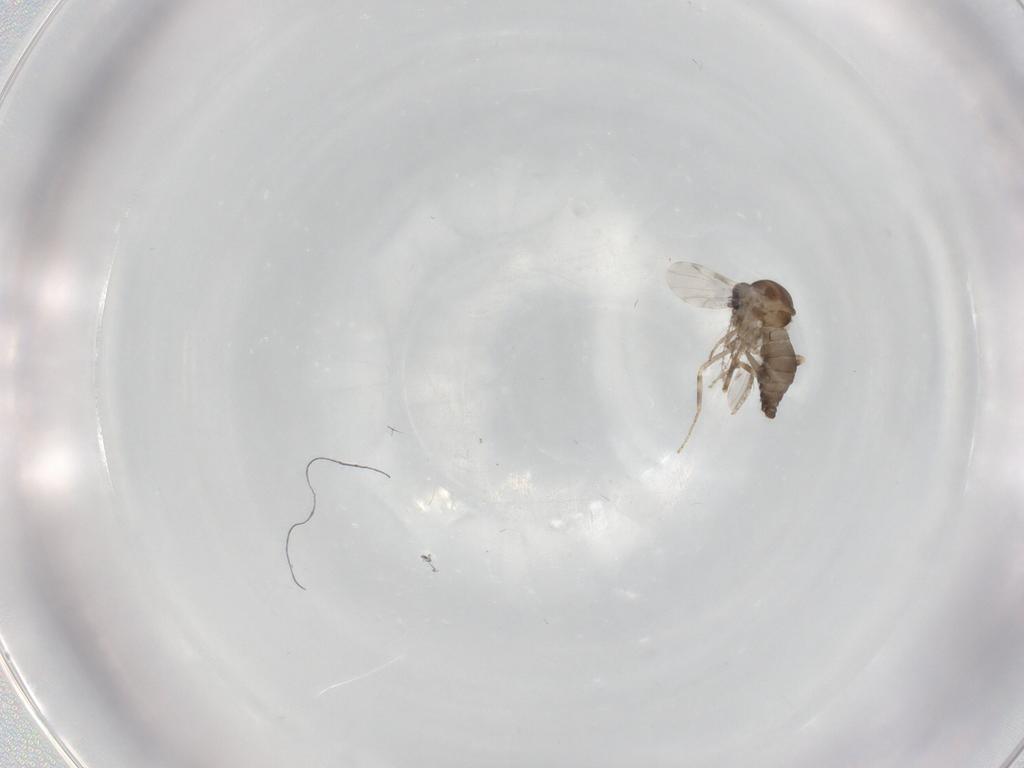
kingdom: Animalia
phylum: Arthropoda
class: Insecta
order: Diptera
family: Ceratopogonidae
